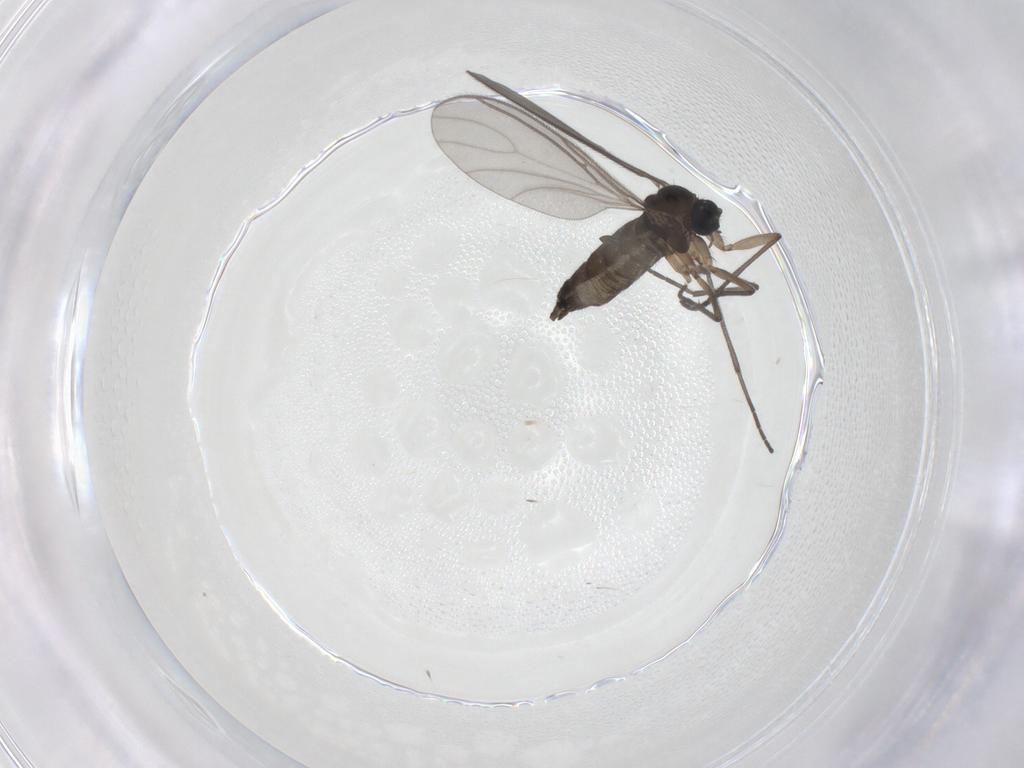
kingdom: Animalia
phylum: Arthropoda
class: Insecta
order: Diptera
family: Sciaridae
